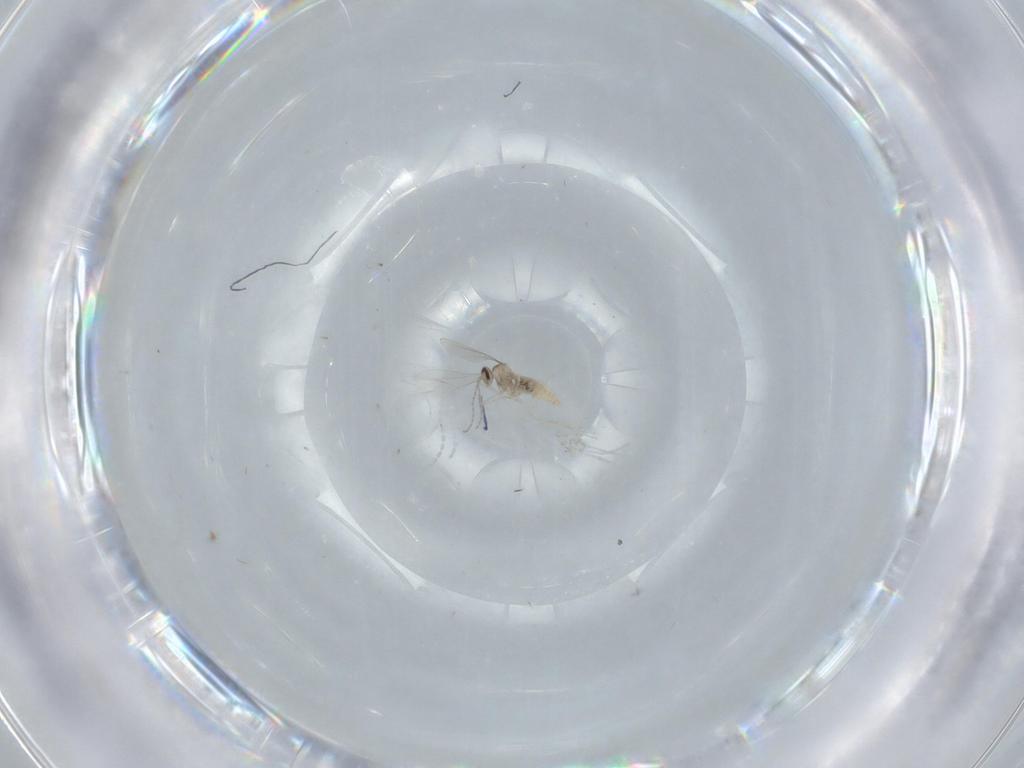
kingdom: Animalia
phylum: Arthropoda
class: Insecta
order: Diptera
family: Cecidomyiidae
